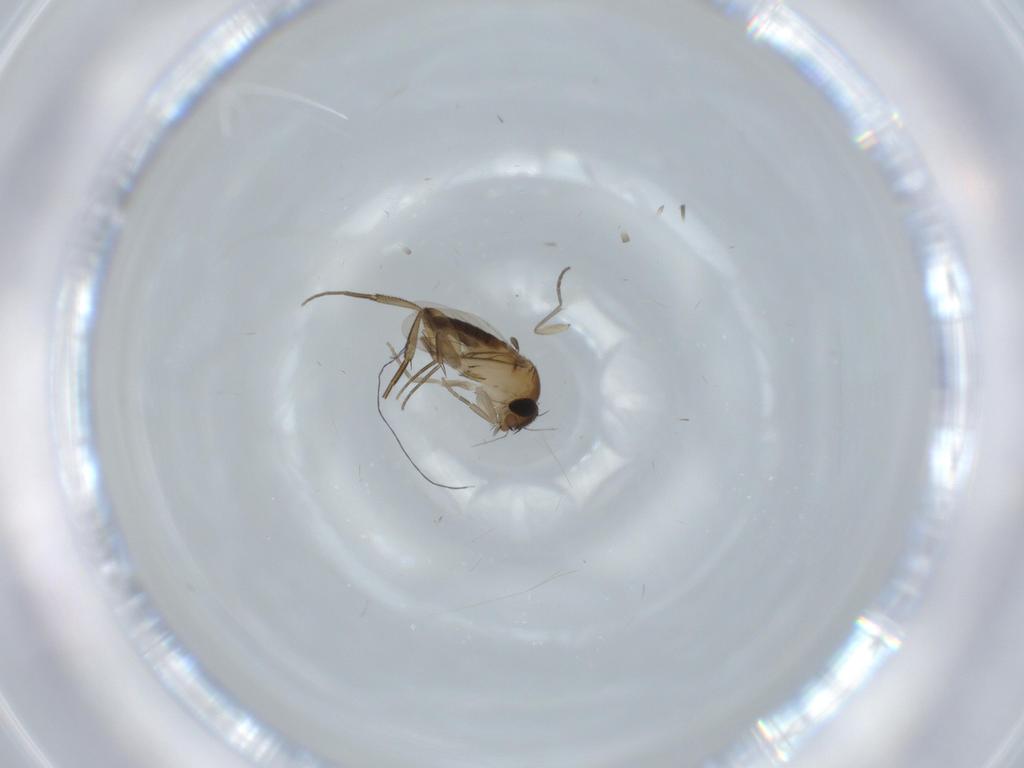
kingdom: Animalia
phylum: Arthropoda
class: Insecta
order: Diptera
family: Phoridae
